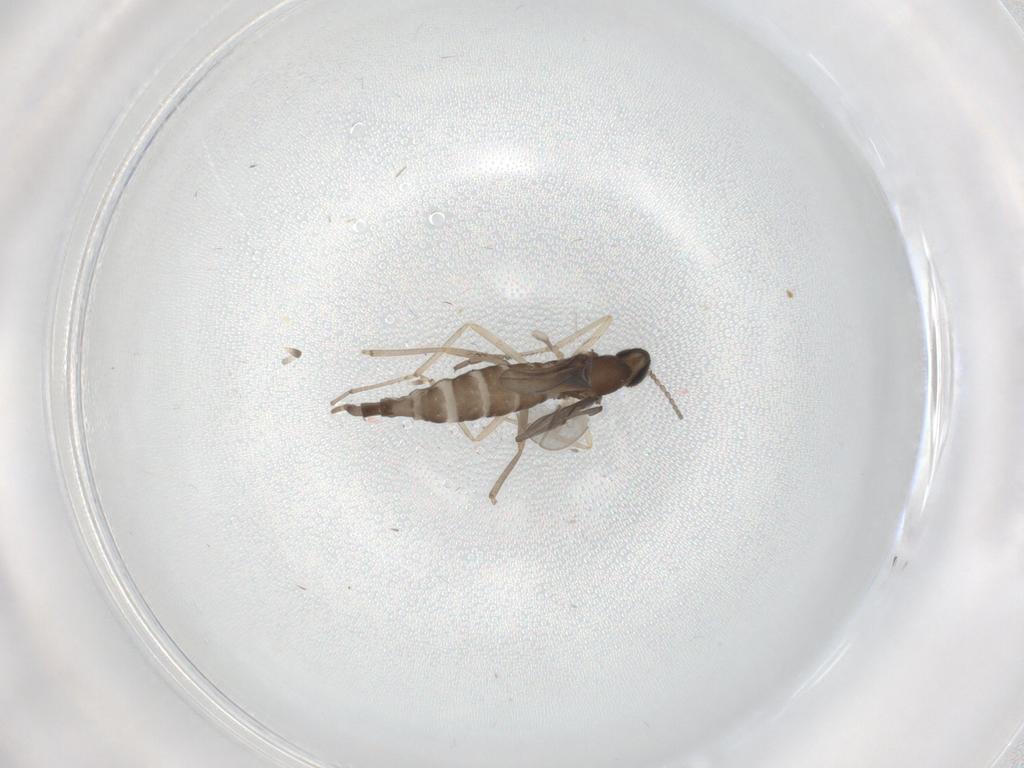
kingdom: Animalia
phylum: Arthropoda
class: Insecta
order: Diptera
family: Cecidomyiidae
